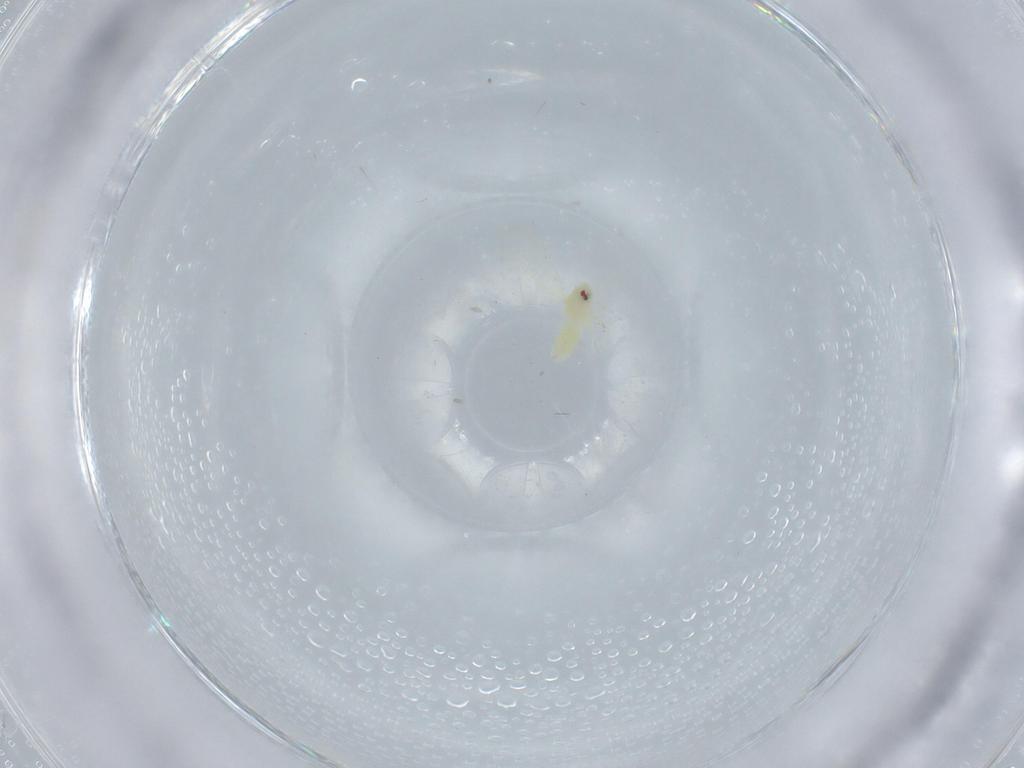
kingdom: Animalia
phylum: Arthropoda
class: Insecta
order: Hemiptera
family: Aleyrodidae
